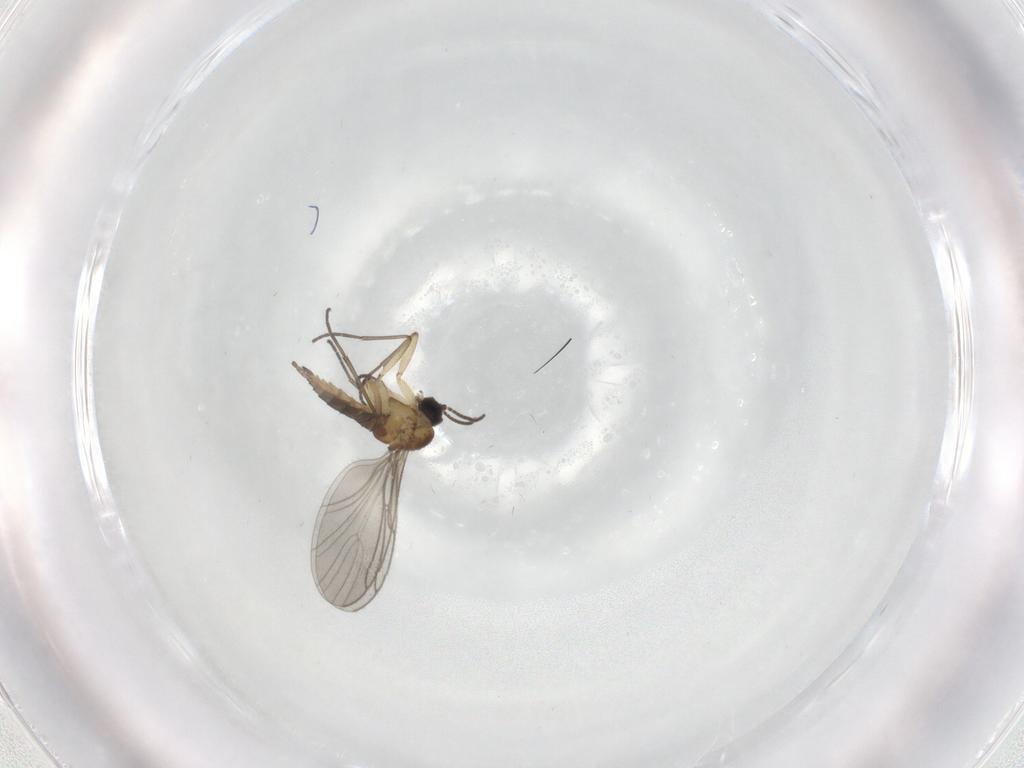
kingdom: Animalia
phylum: Arthropoda
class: Insecta
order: Diptera
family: Sciaridae
